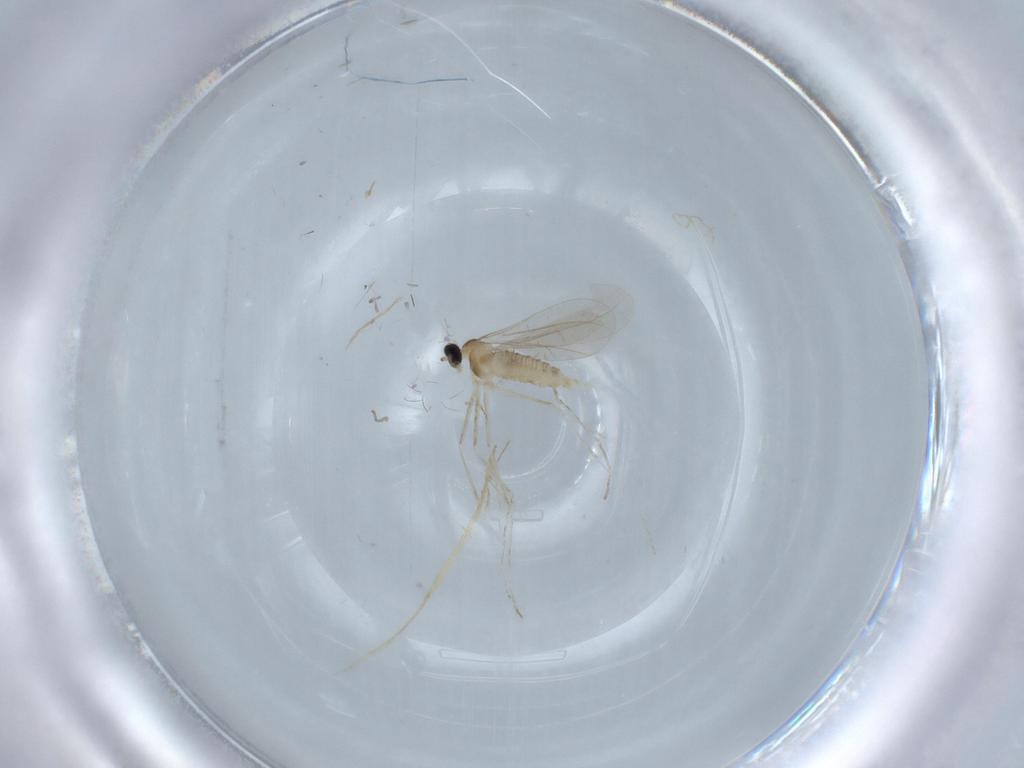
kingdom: Animalia
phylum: Arthropoda
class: Insecta
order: Diptera
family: Cecidomyiidae
